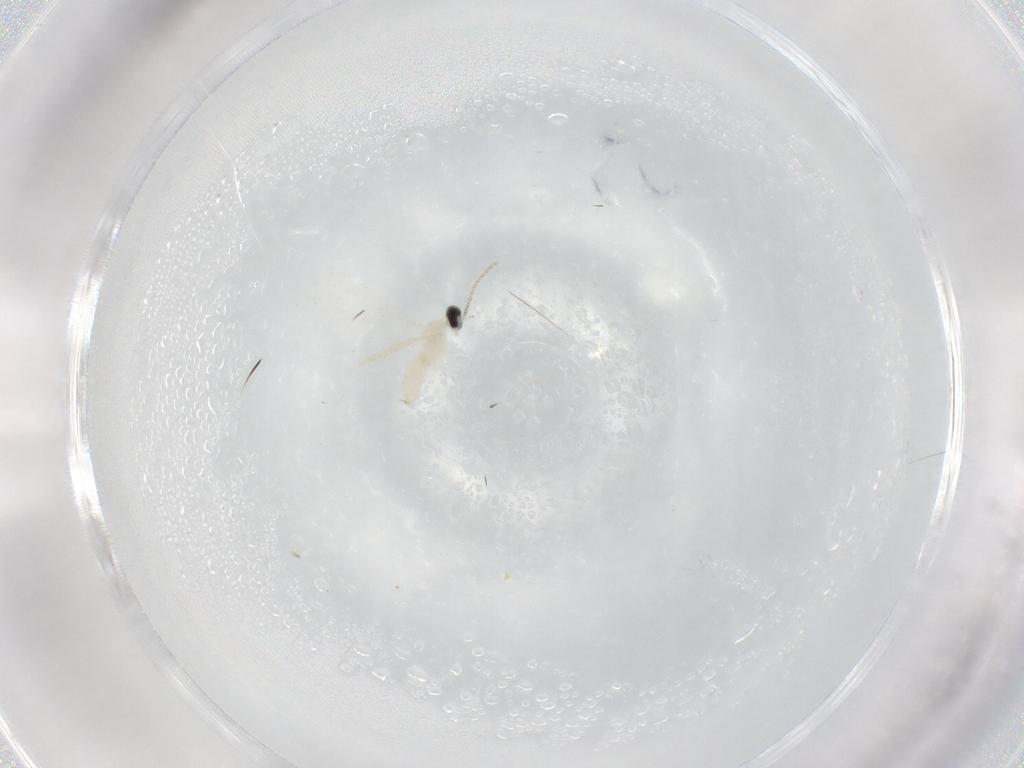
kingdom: Animalia
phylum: Arthropoda
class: Insecta
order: Diptera
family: Cecidomyiidae
